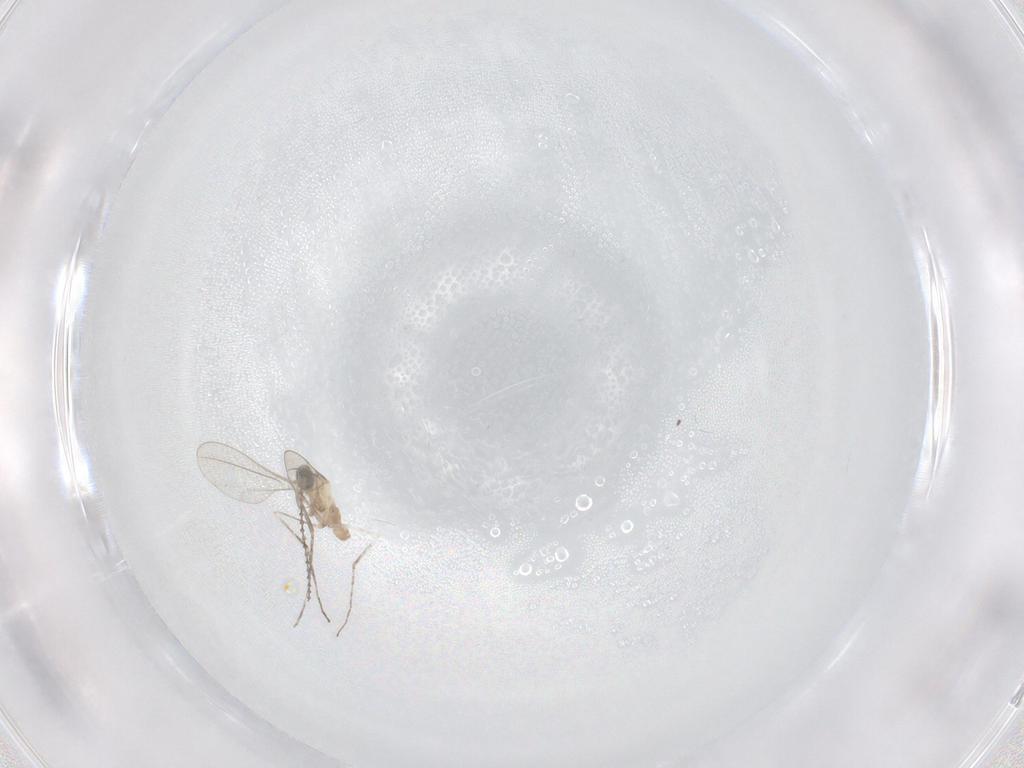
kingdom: Animalia
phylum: Arthropoda
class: Insecta
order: Diptera
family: Cecidomyiidae
